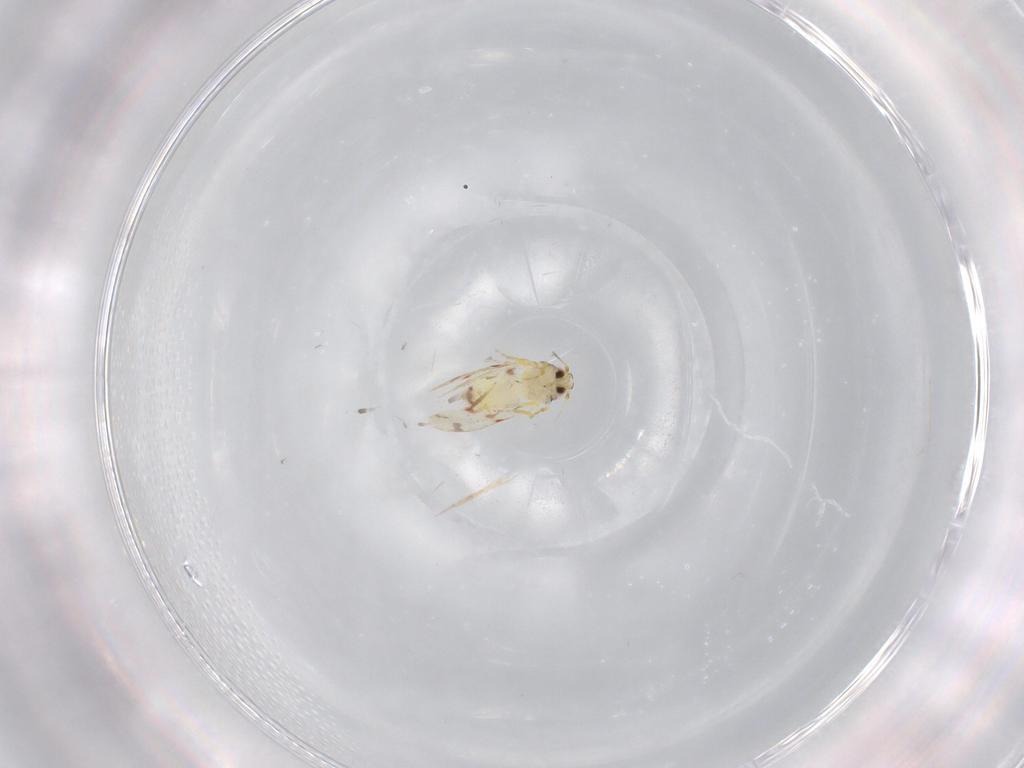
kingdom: Animalia
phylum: Arthropoda
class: Insecta
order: Hemiptera
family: Aleyrodidae
